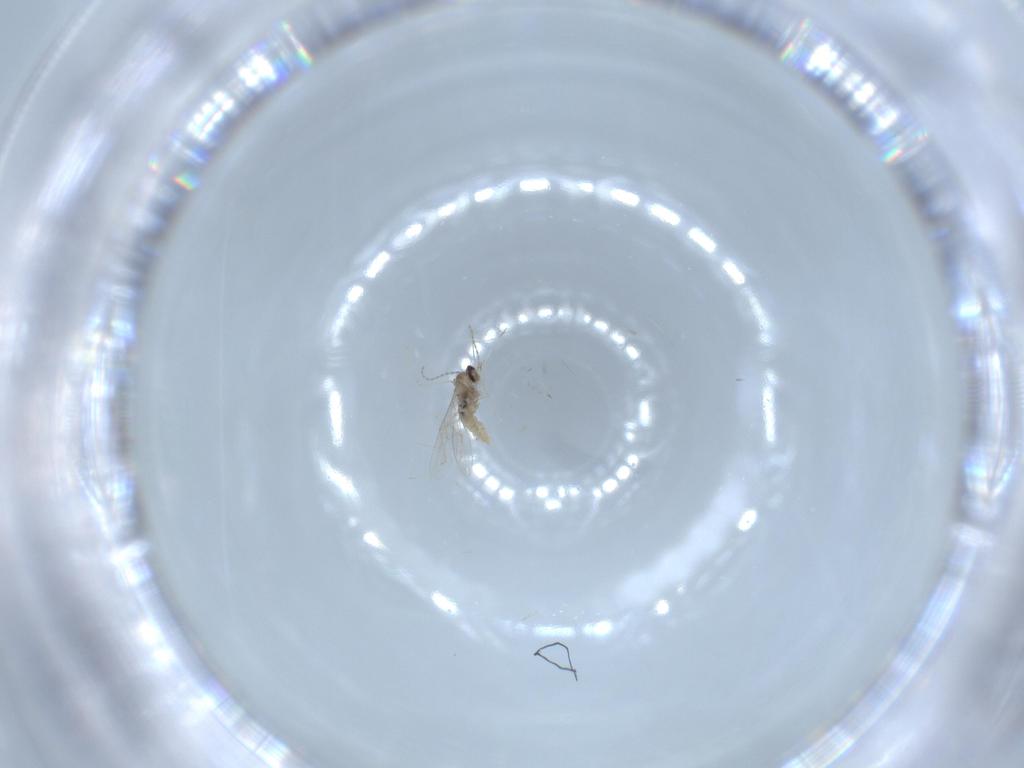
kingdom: Animalia
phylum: Arthropoda
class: Insecta
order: Diptera
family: Cecidomyiidae
